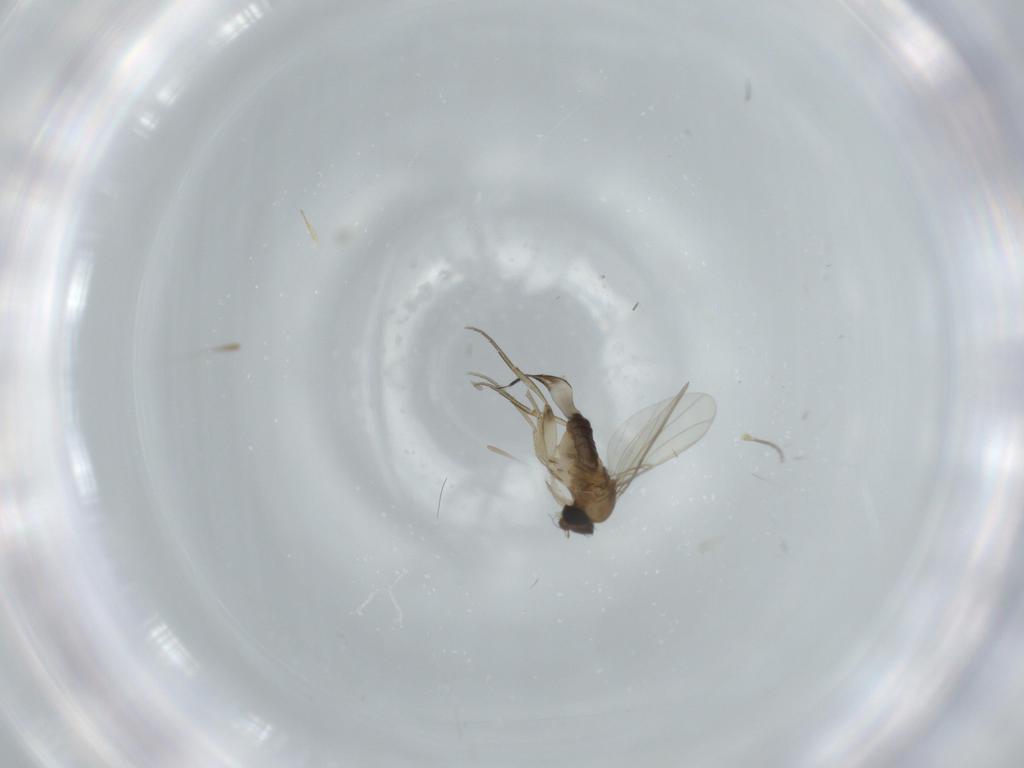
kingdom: Animalia
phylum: Arthropoda
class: Insecta
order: Diptera
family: Phoridae
